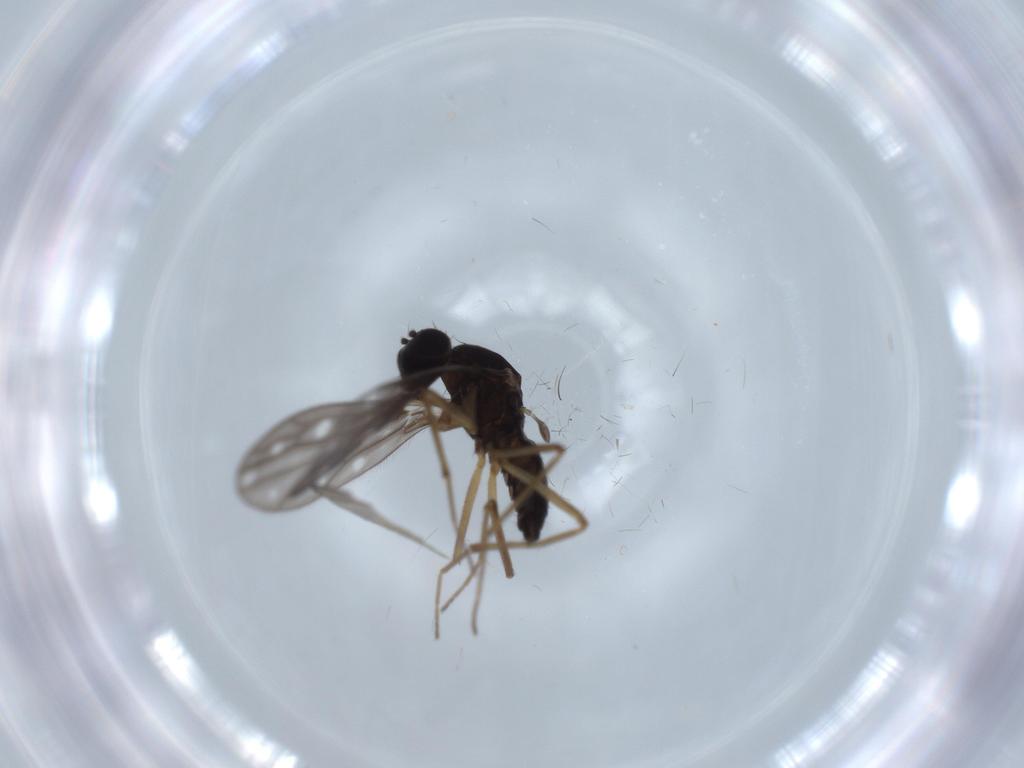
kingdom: Animalia
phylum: Arthropoda
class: Insecta
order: Diptera
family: Empididae
